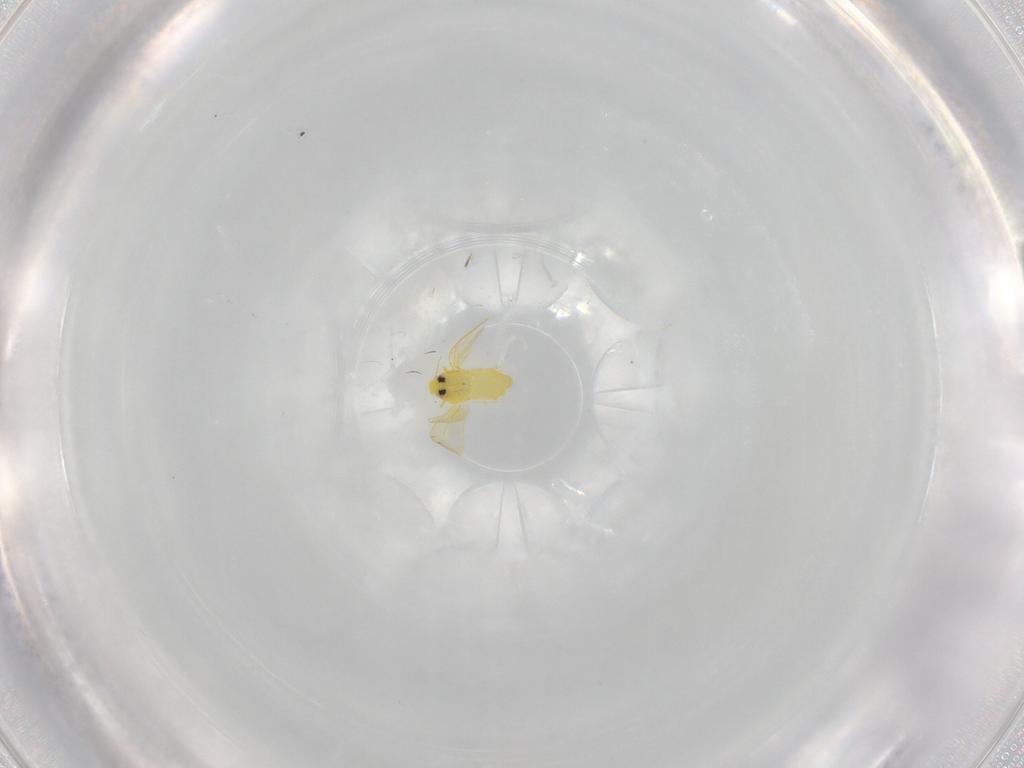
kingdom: Animalia
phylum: Arthropoda
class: Insecta
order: Hemiptera
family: Aleyrodidae
